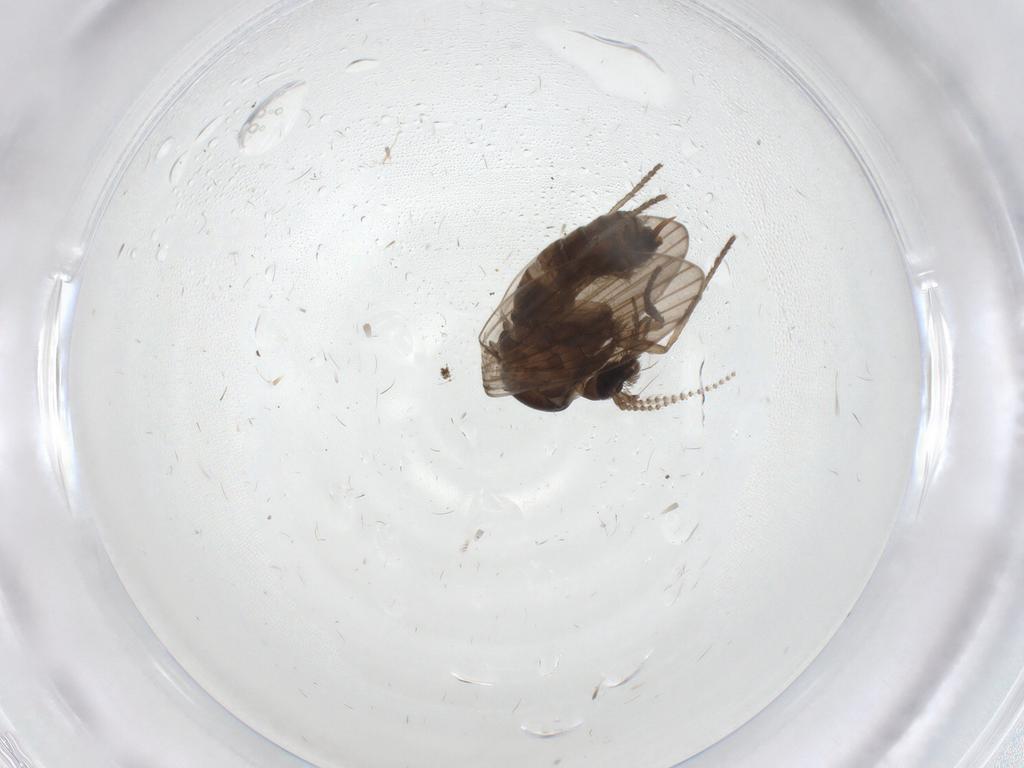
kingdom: Animalia
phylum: Arthropoda
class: Insecta
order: Diptera
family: Psychodidae
